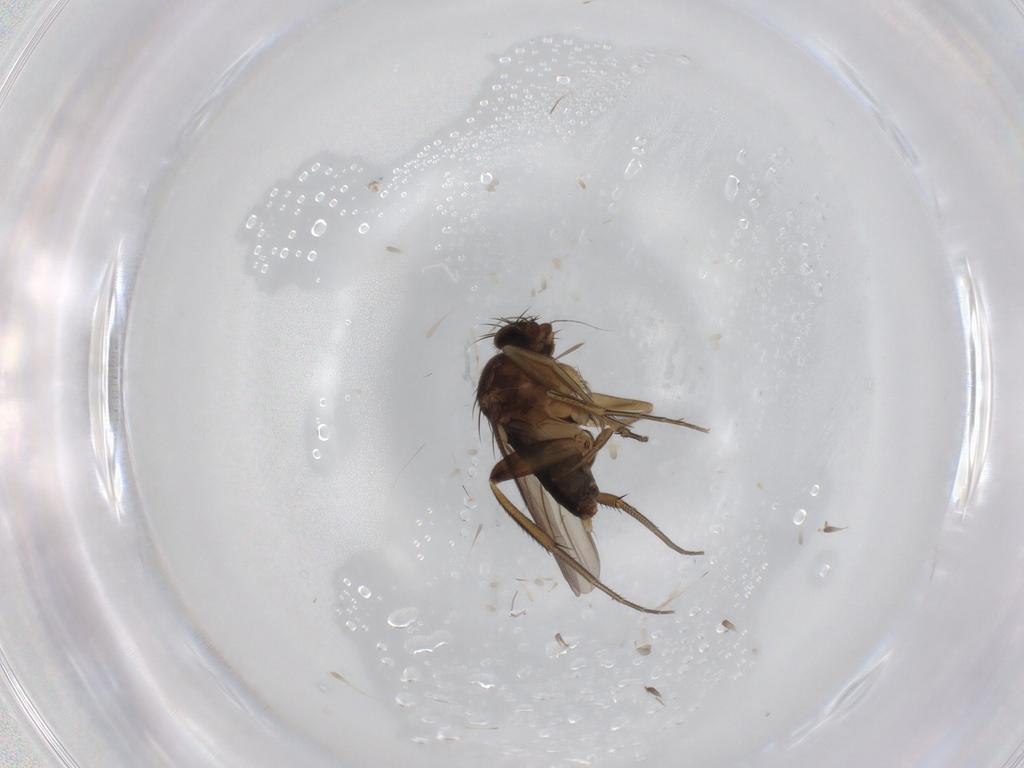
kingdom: Animalia
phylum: Arthropoda
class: Insecta
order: Diptera
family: Phoridae
